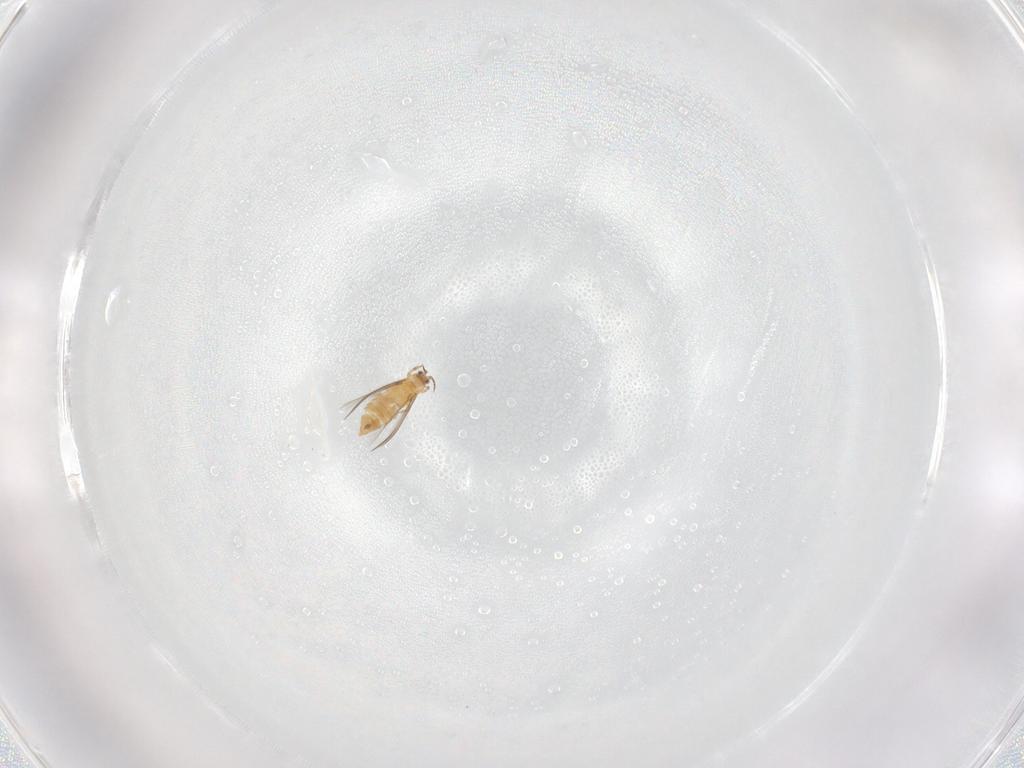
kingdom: Animalia
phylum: Arthropoda
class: Insecta
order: Thysanoptera
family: Thripidae
